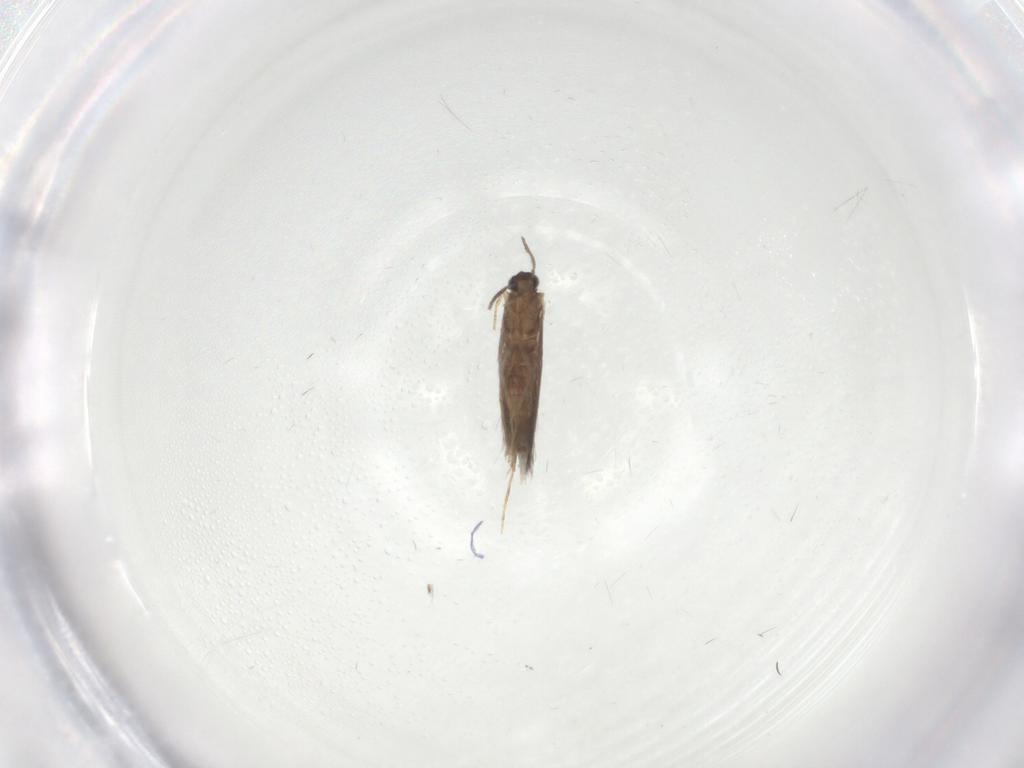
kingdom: Animalia
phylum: Arthropoda
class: Insecta
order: Trichoptera
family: Hydroptilidae
